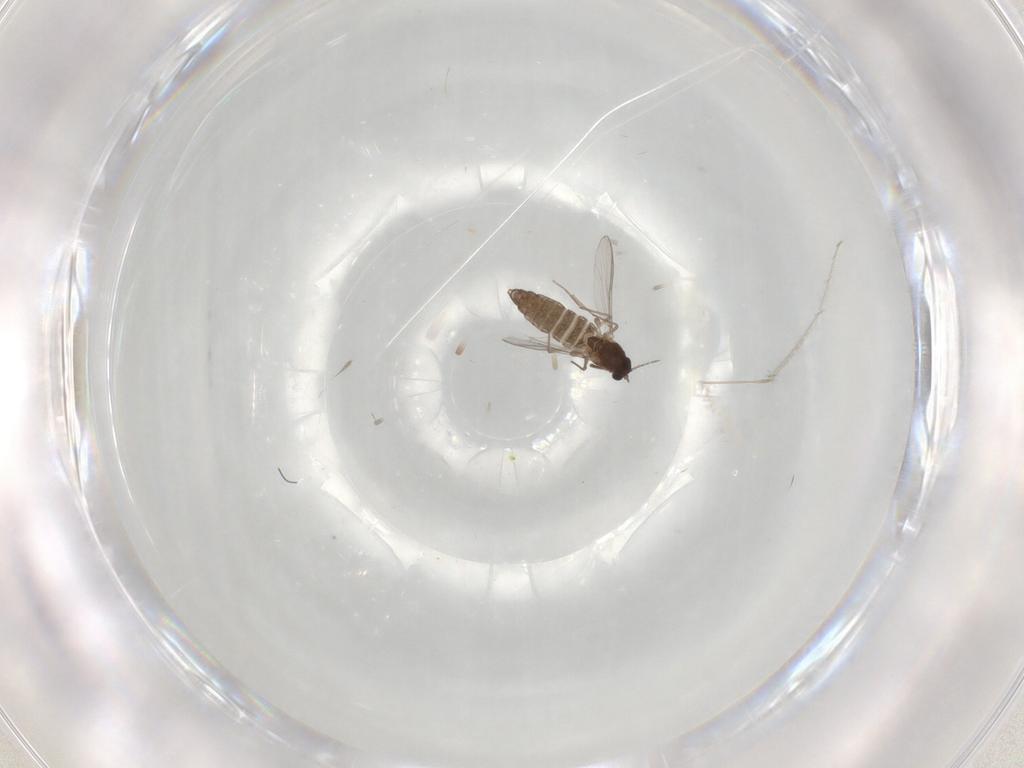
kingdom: Animalia
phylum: Arthropoda
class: Insecta
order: Diptera
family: Chironomidae
